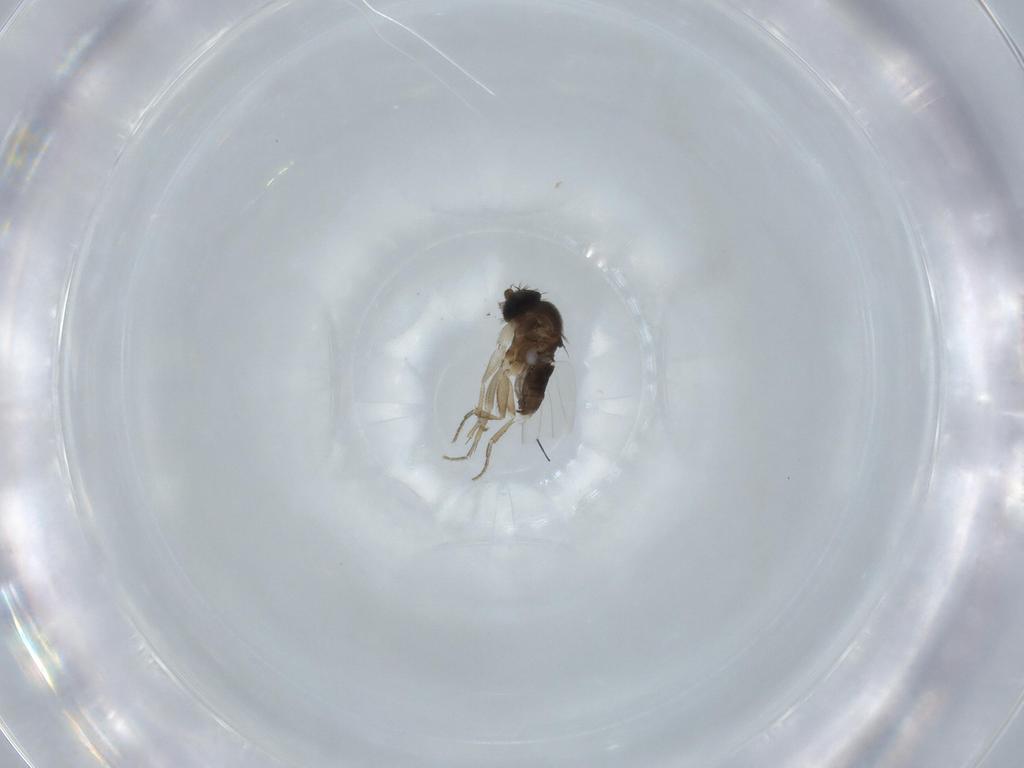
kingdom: Animalia
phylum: Arthropoda
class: Insecta
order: Diptera
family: Phoridae
